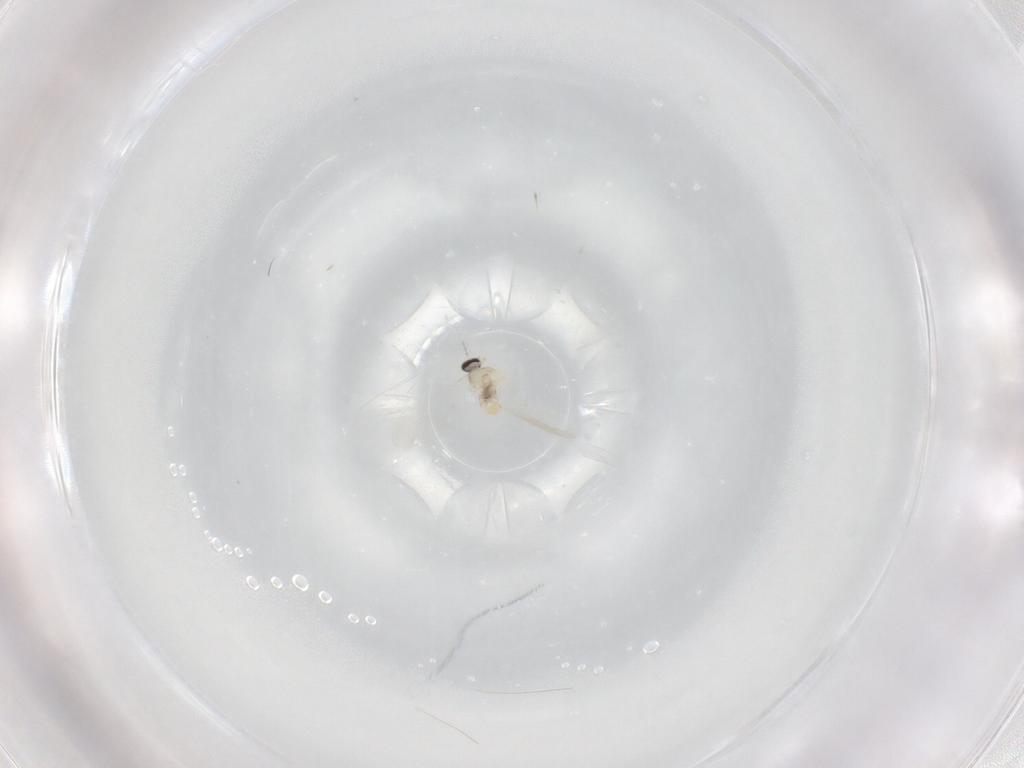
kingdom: Animalia
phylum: Arthropoda
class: Insecta
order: Diptera
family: Cecidomyiidae
